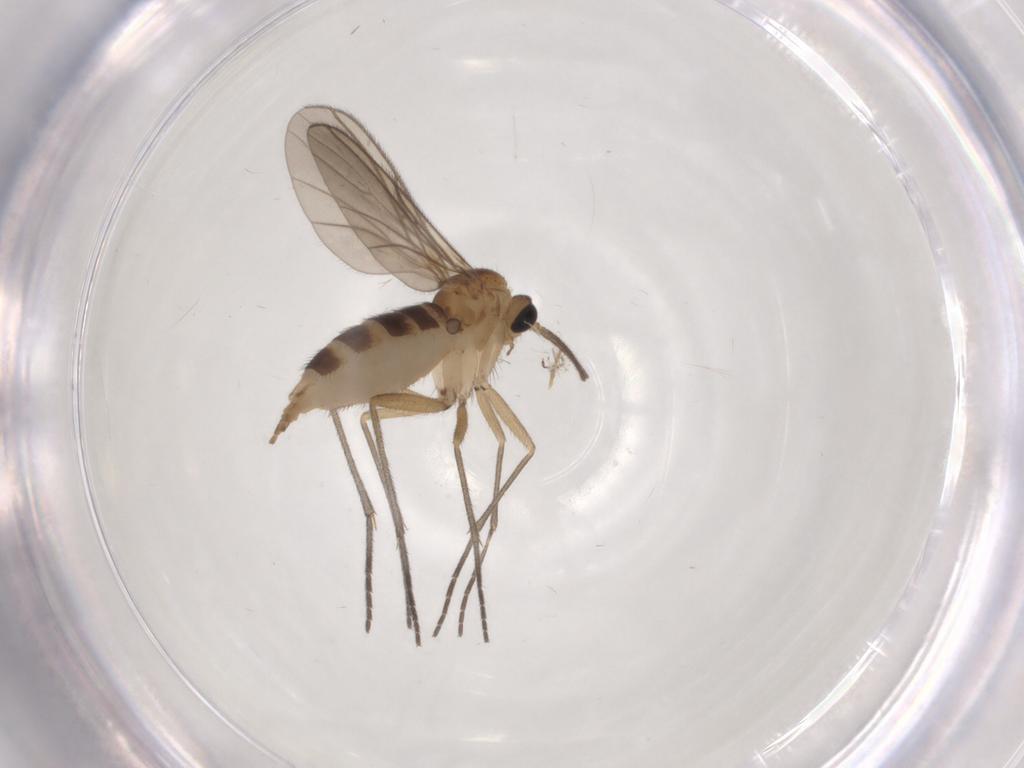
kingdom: Animalia
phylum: Arthropoda
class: Insecta
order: Diptera
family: Sciaridae
